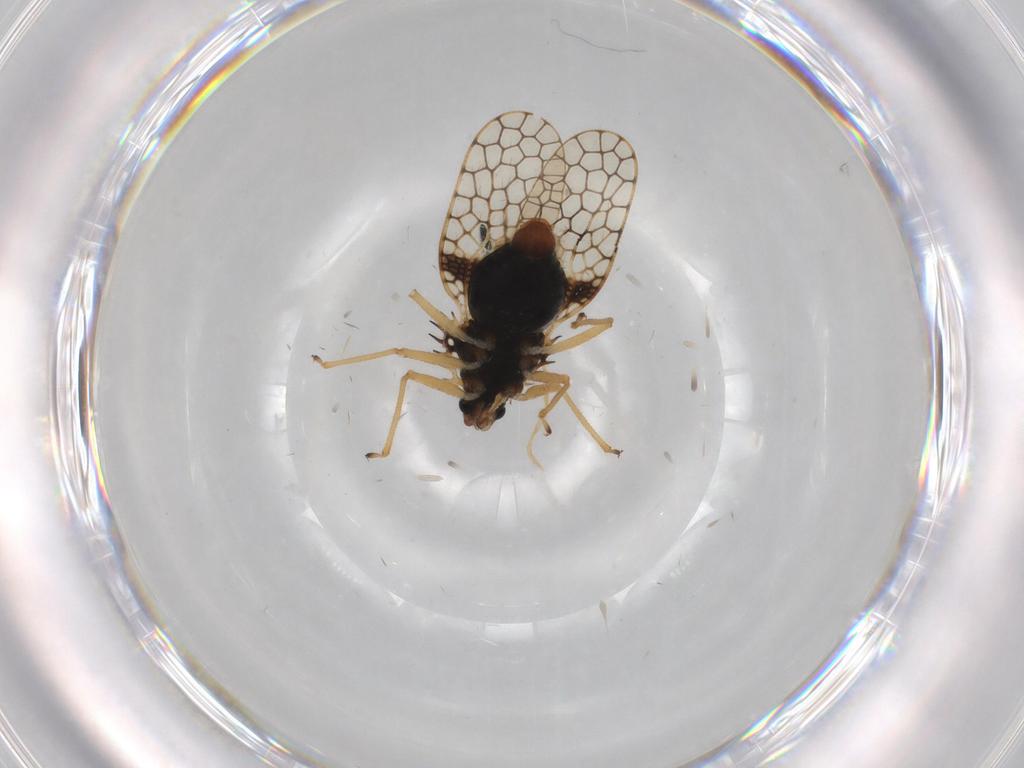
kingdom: Animalia
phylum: Arthropoda
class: Insecta
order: Hemiptera
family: Tingidae
